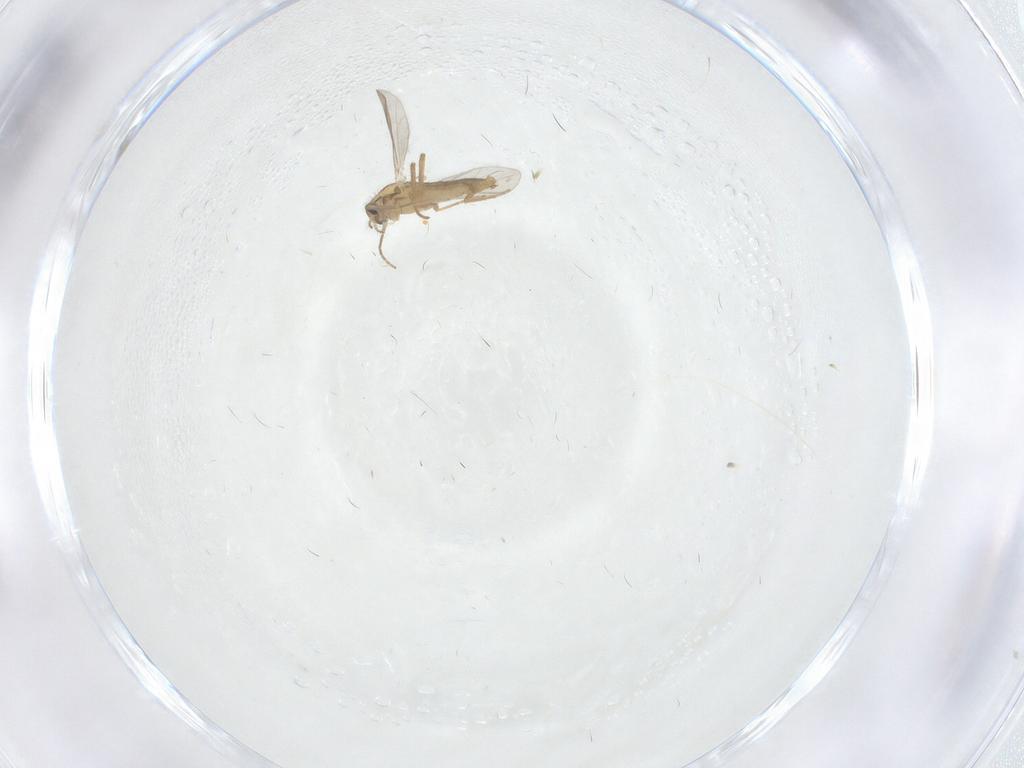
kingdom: Animalia
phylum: Arthropoda
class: Insecta
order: Diptera
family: Chironomidae
